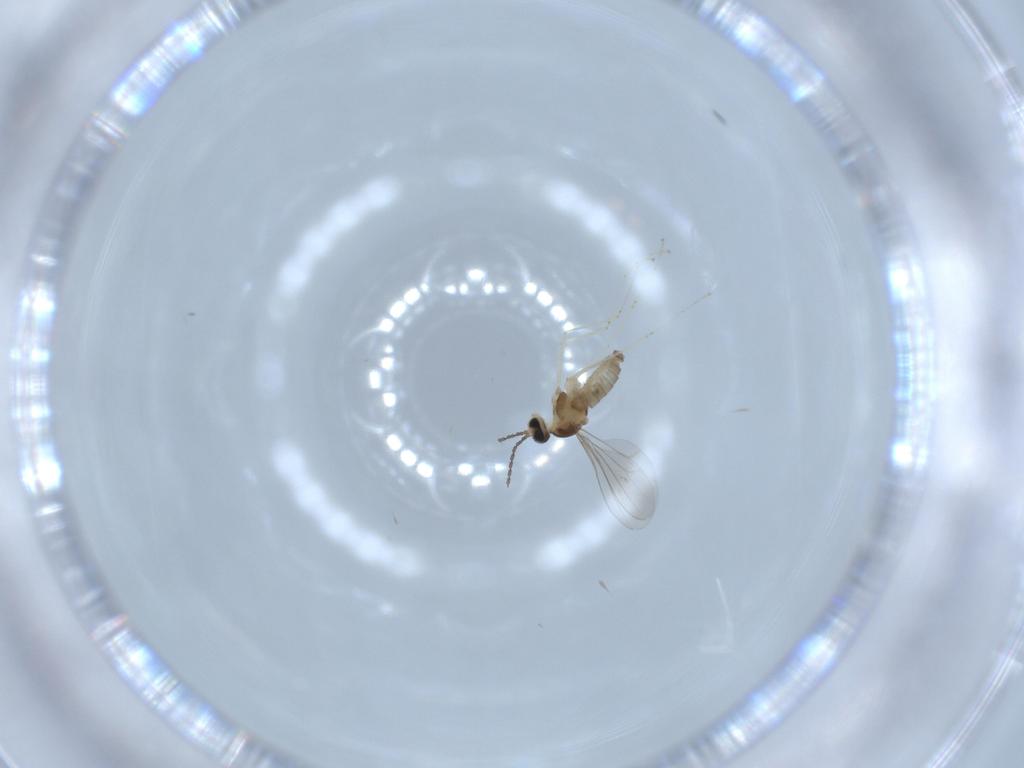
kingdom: Animalia
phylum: Arthropoda
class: Insecta
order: Diptera
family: Cecidomyiidae
